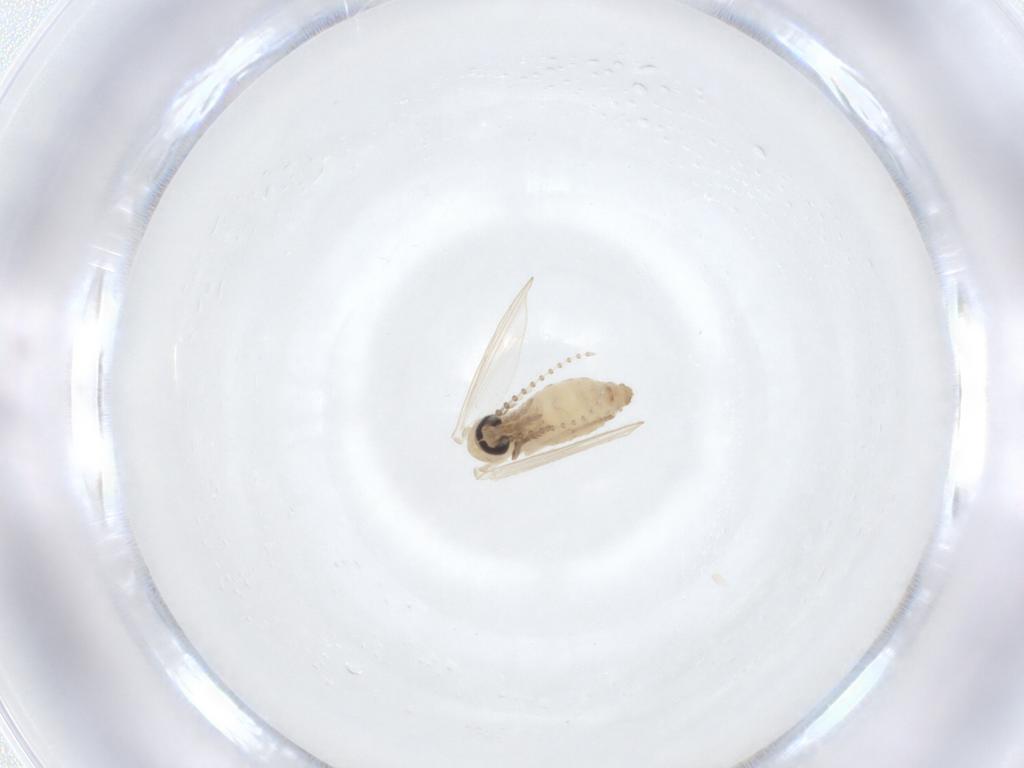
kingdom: Animalia
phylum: Arthropoda
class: Insecta
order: Diptera
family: Psychodidae
